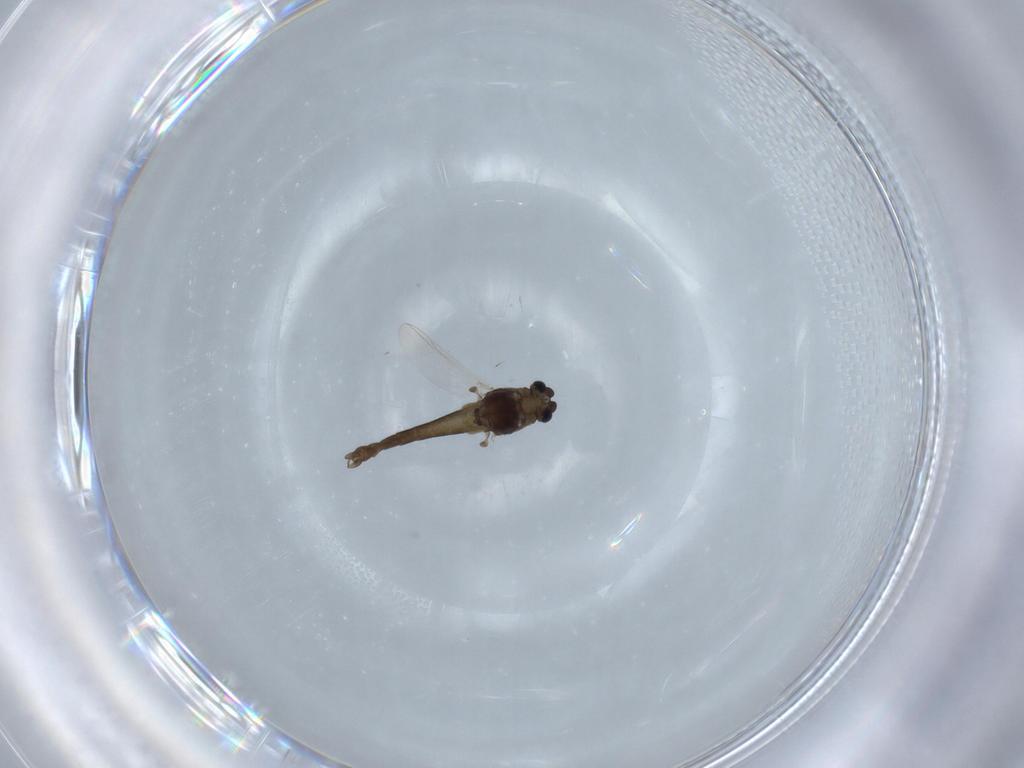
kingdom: Animalia
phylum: Arthropoda
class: Insecta
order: Diptera
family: Chironomidae
